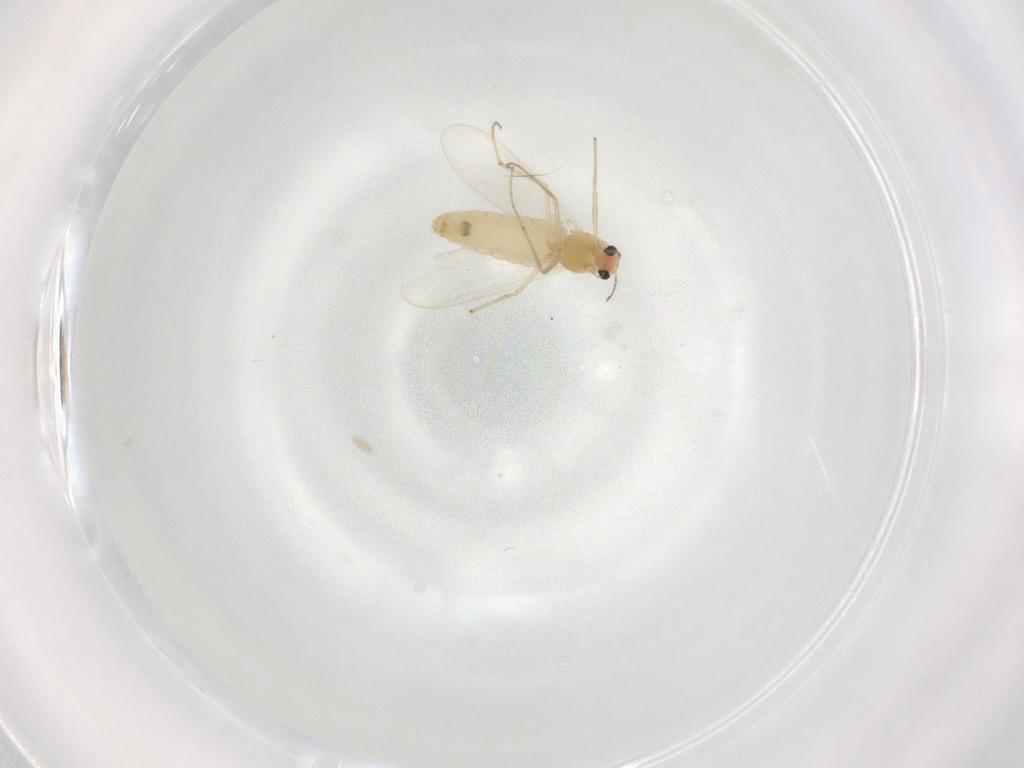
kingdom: Animalia
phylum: Arthropoda
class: Insecta
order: Diptera
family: Chironomidae
